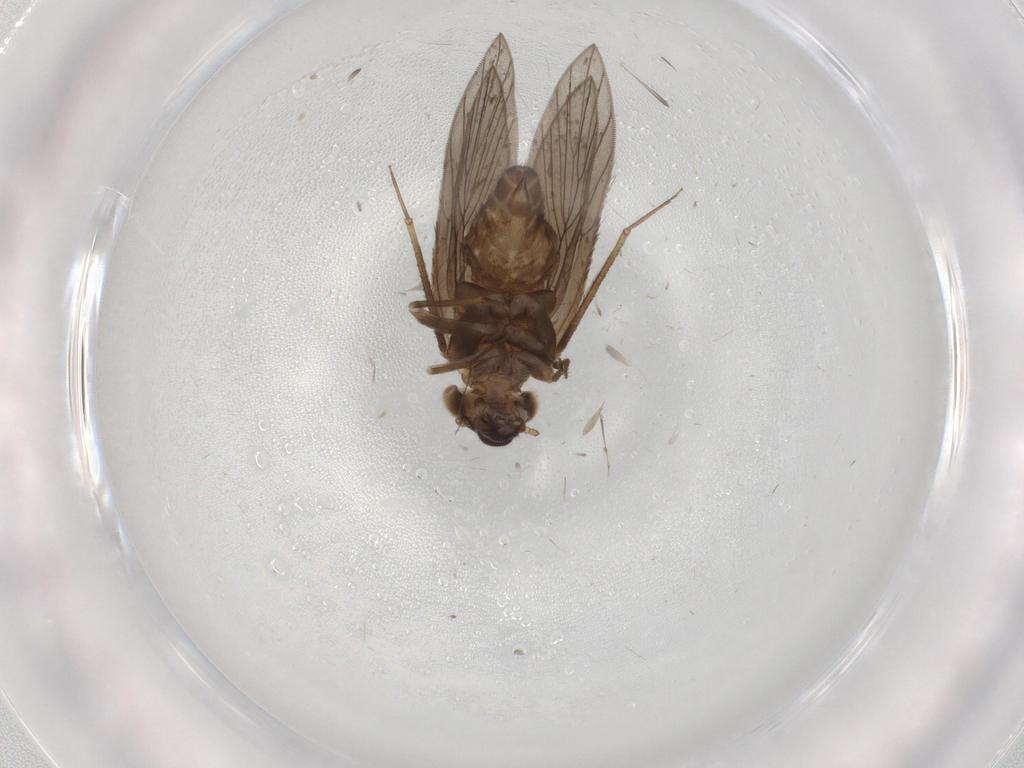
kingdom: Animalia
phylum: Arthropoda
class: Insecta
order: Psocodea
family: Lepidopsocidae
